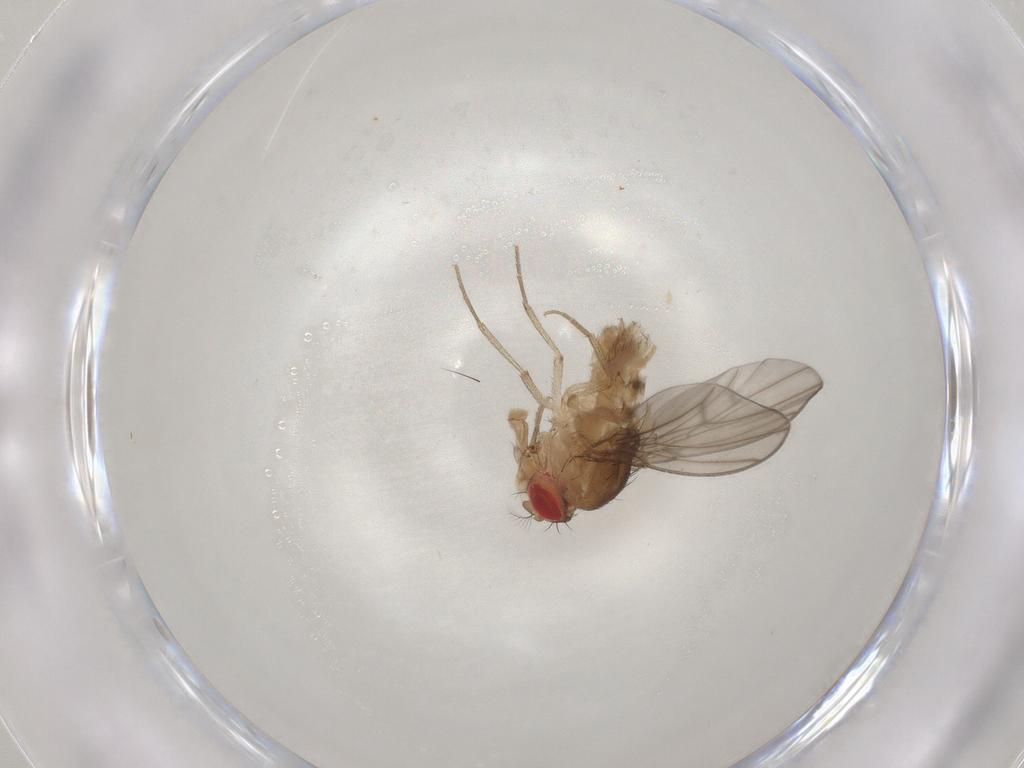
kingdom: Animalia
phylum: Arthropoda
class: Insecta
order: Diptera
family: Drosophilidae
